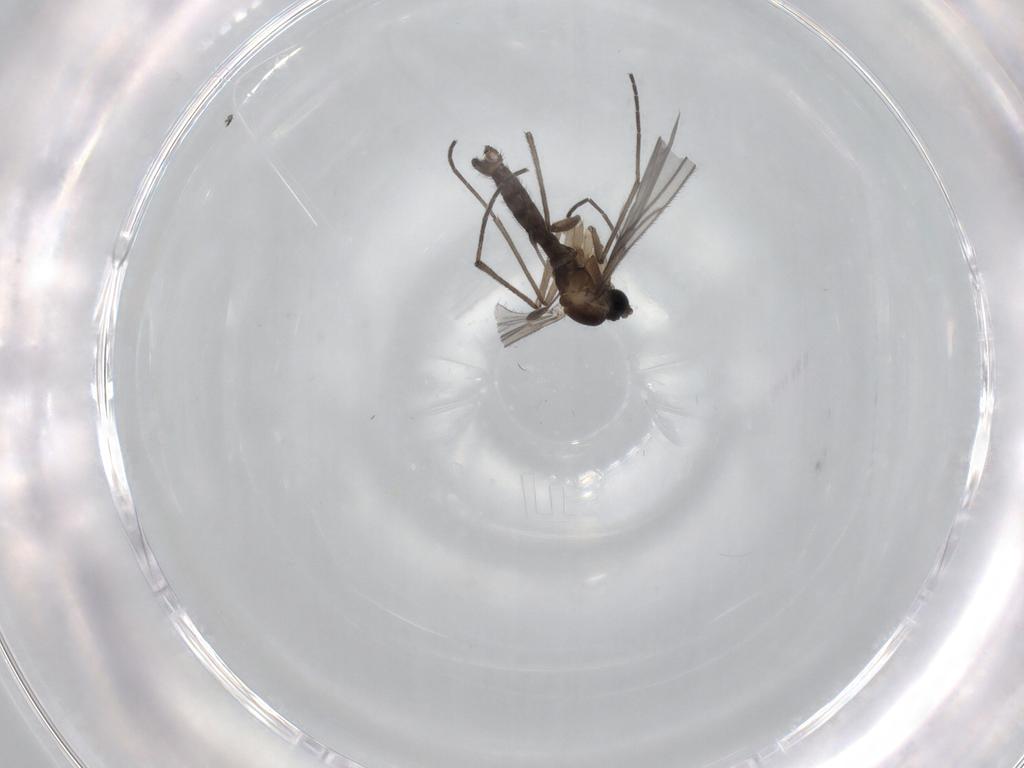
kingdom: Animalia
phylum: Arthropoda
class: Insecta
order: Diptera
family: Sciaridae
